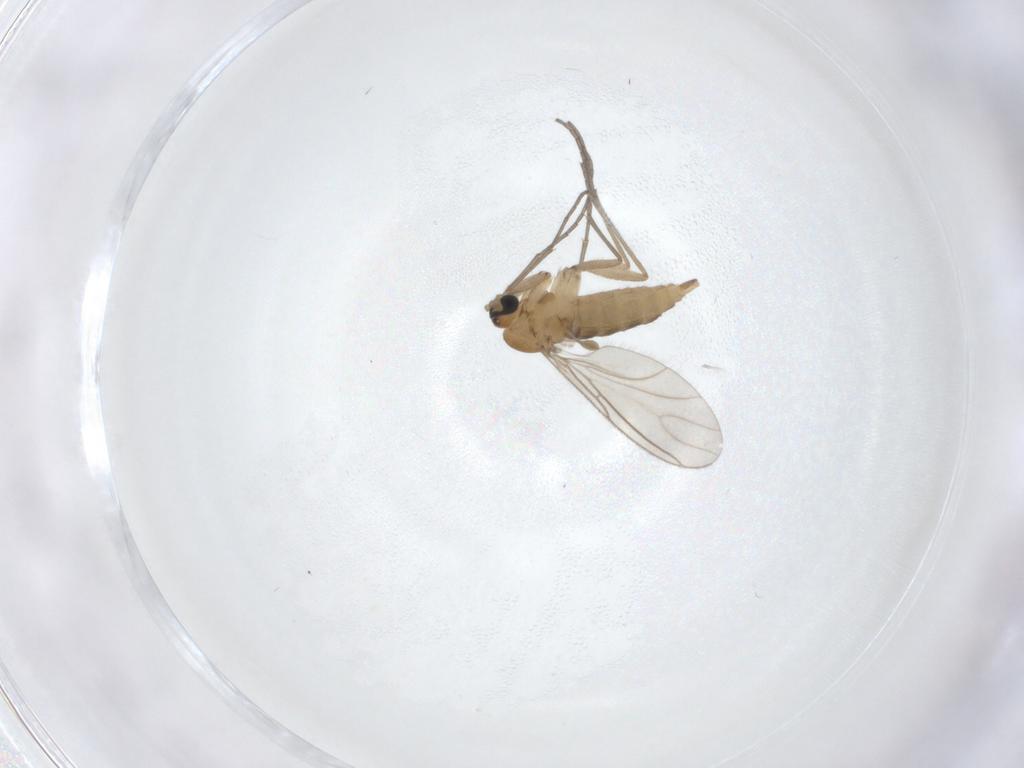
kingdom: Animalia
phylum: Arthropoda
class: Insecta
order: Diptera
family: Sciaridae
